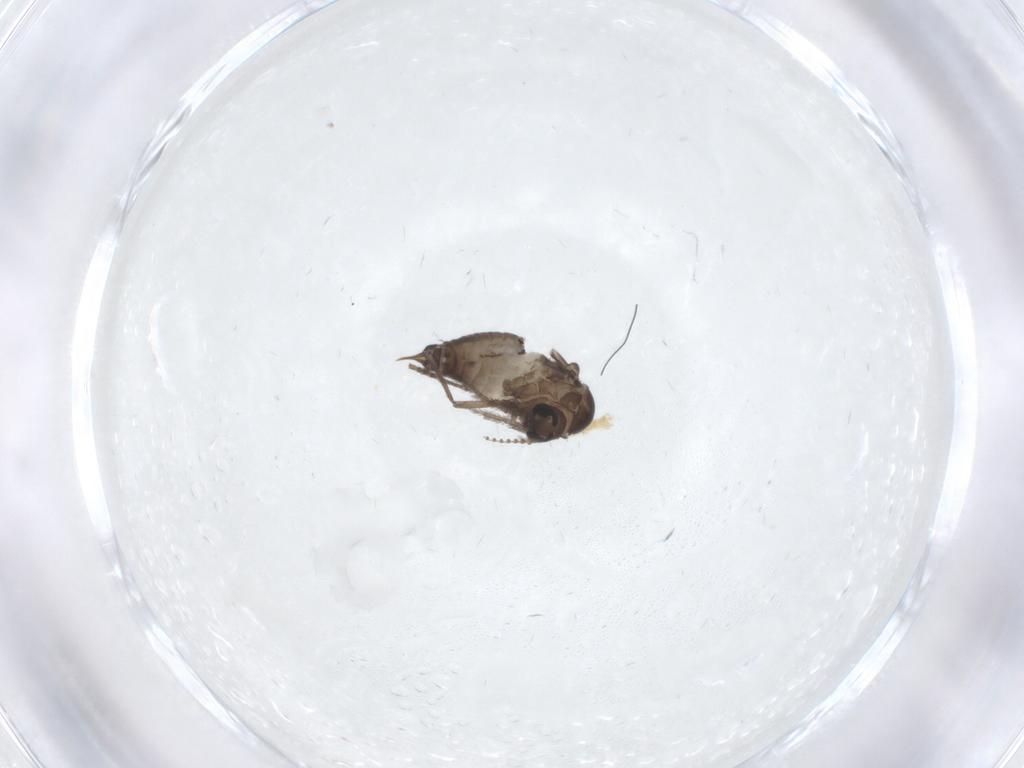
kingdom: Animalia
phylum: Arthropoda
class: Insecta
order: Diptera
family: Psychodidae
